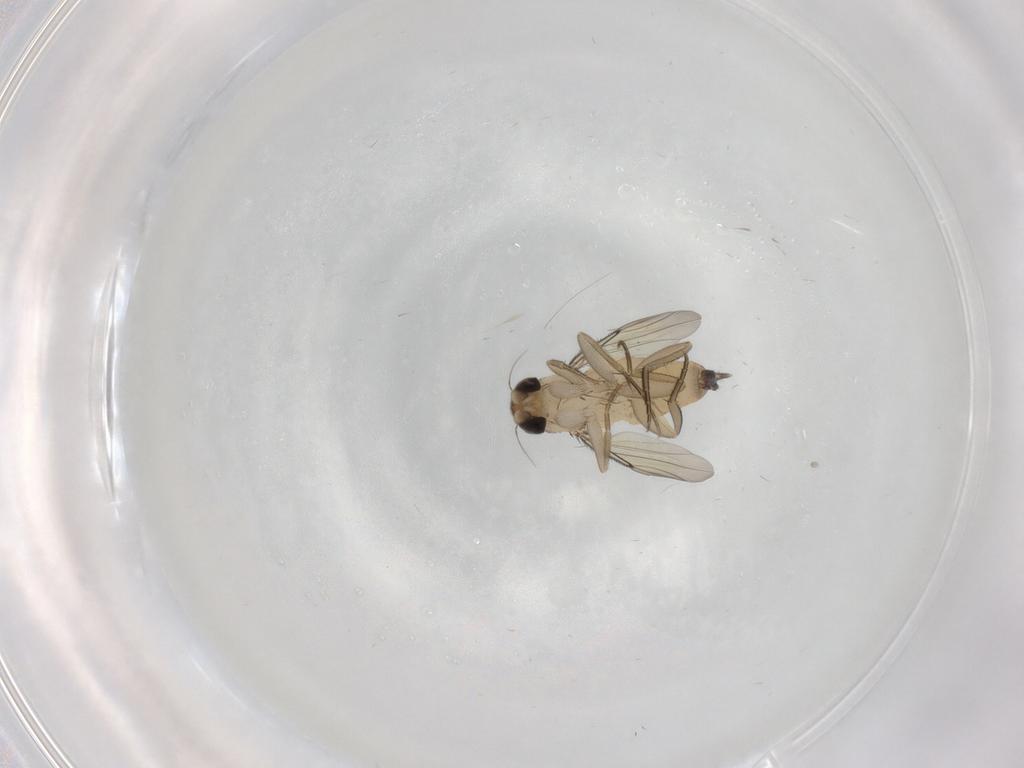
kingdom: Animalia
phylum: Arthropoda
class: Insecta
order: Diptera
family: Phoridae
